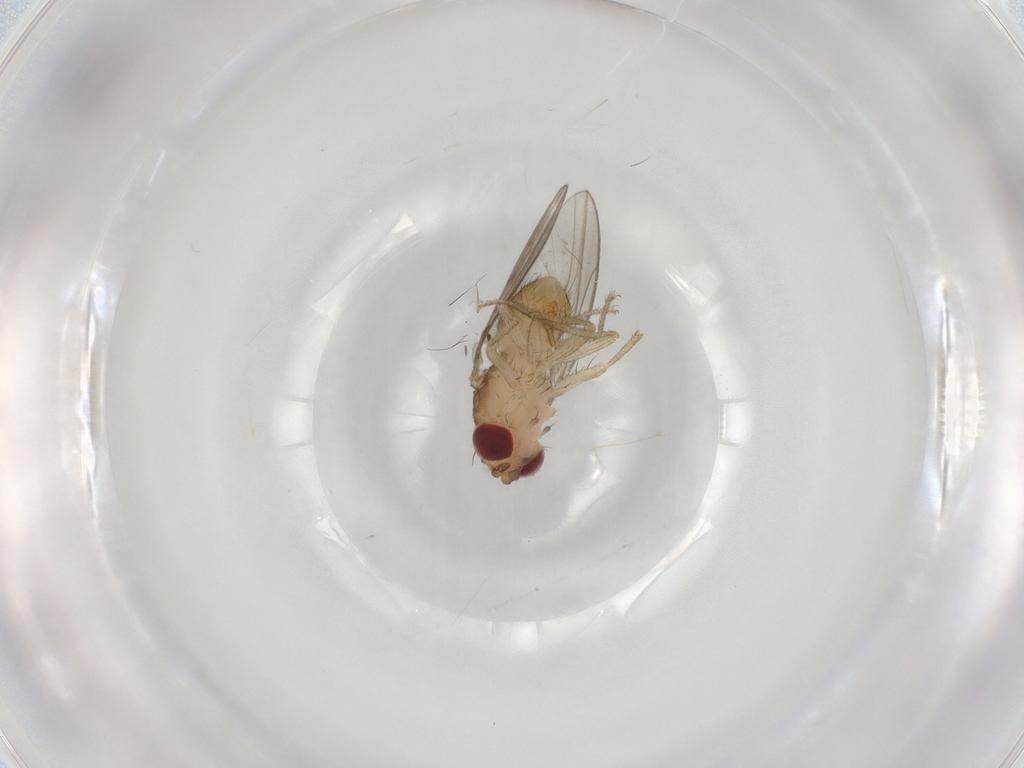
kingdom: Animalia
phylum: Arthropoda
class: Insecta
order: Diptera
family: Drosophilidae
